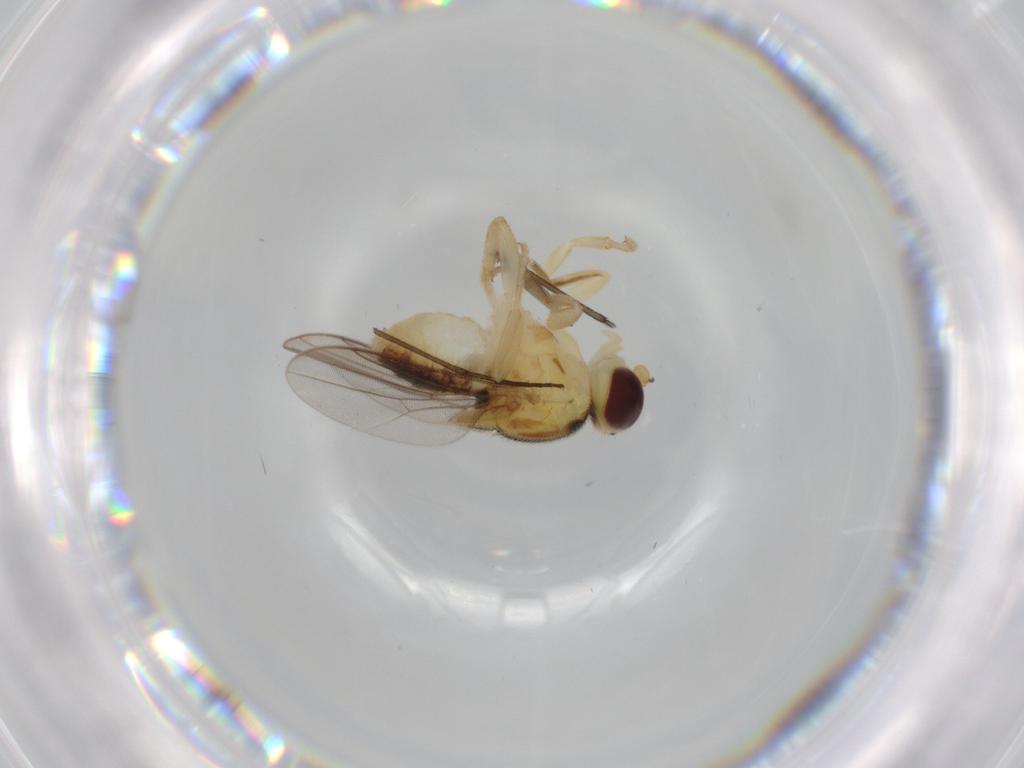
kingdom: Animalia
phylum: Arthropoda
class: Insecta
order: Diptera
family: Chloropidae
